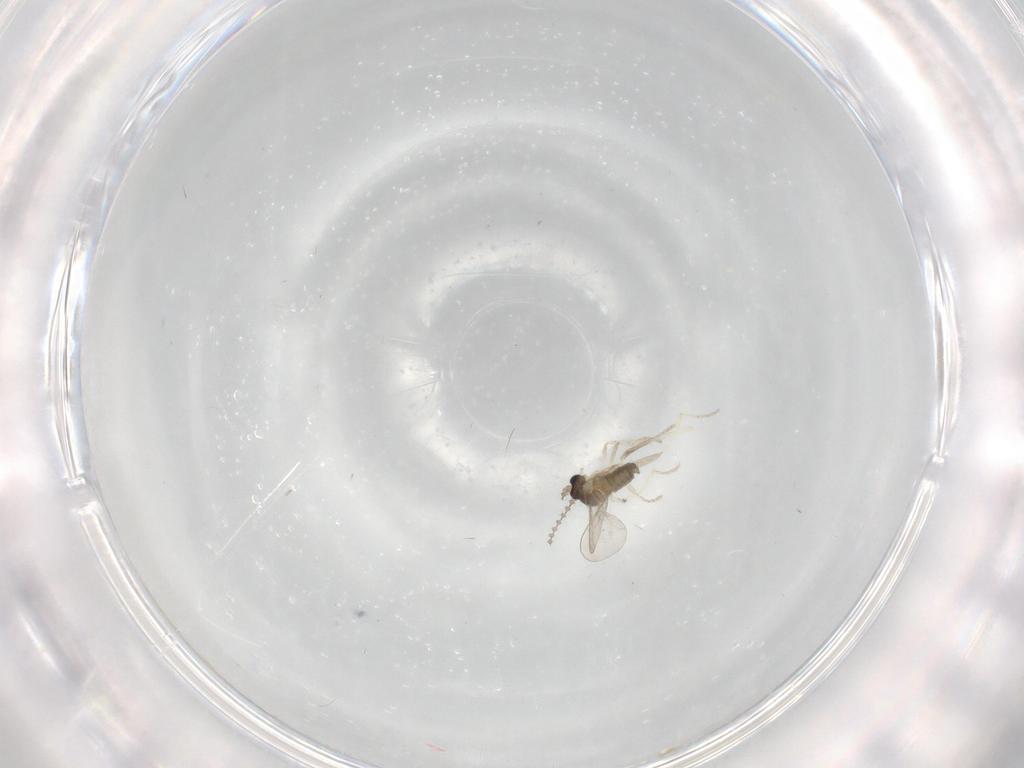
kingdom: Animalia
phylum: Arthropoda
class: Insecta
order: Diptera
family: Cecidomyiidae
